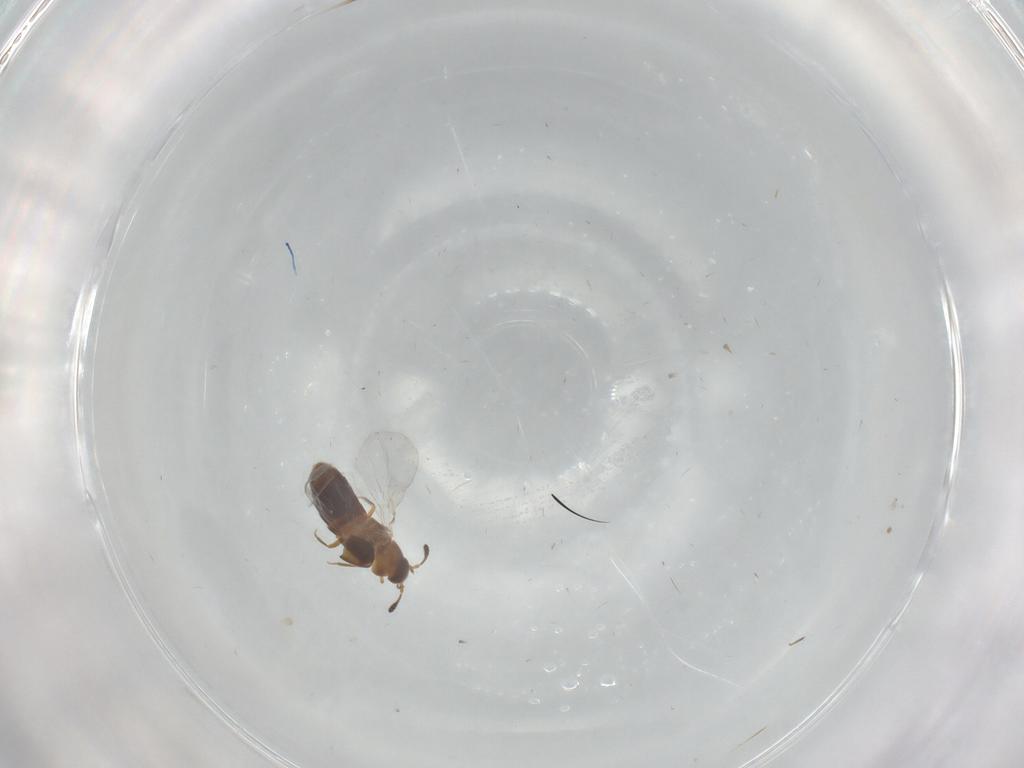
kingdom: Animalia
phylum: Arthropoda
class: Insecta
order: Coleoptera
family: Staphylinidae
